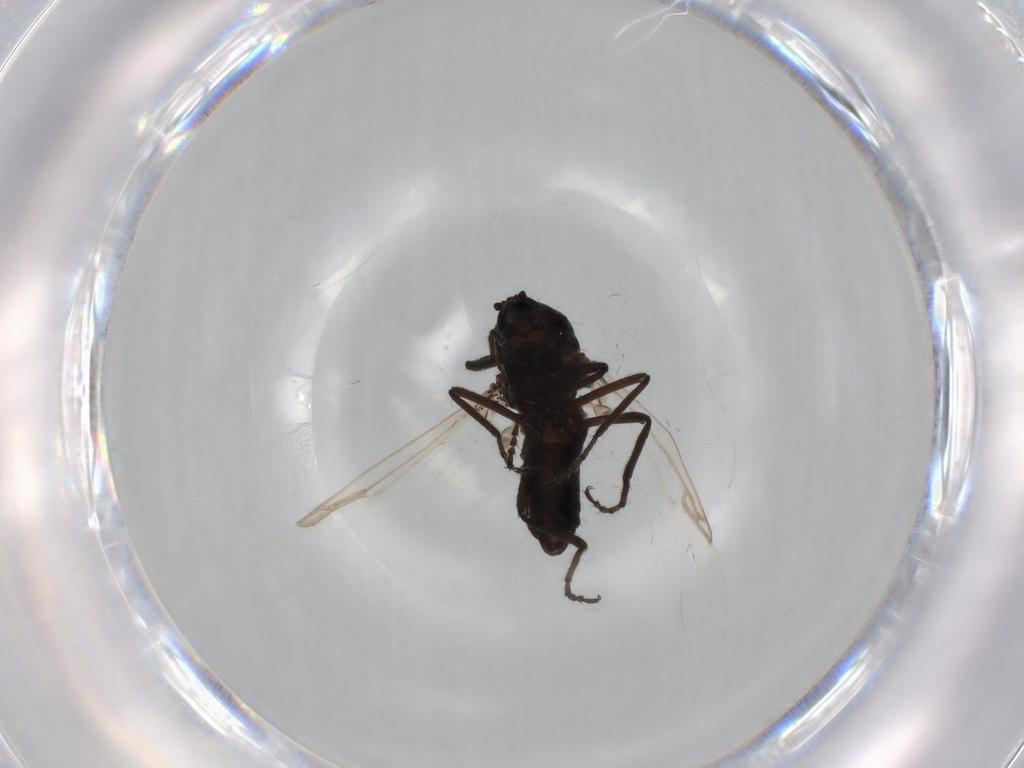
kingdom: Animalia
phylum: Arthropoda
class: Insecta
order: Diptera
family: Ceratopogonidae
